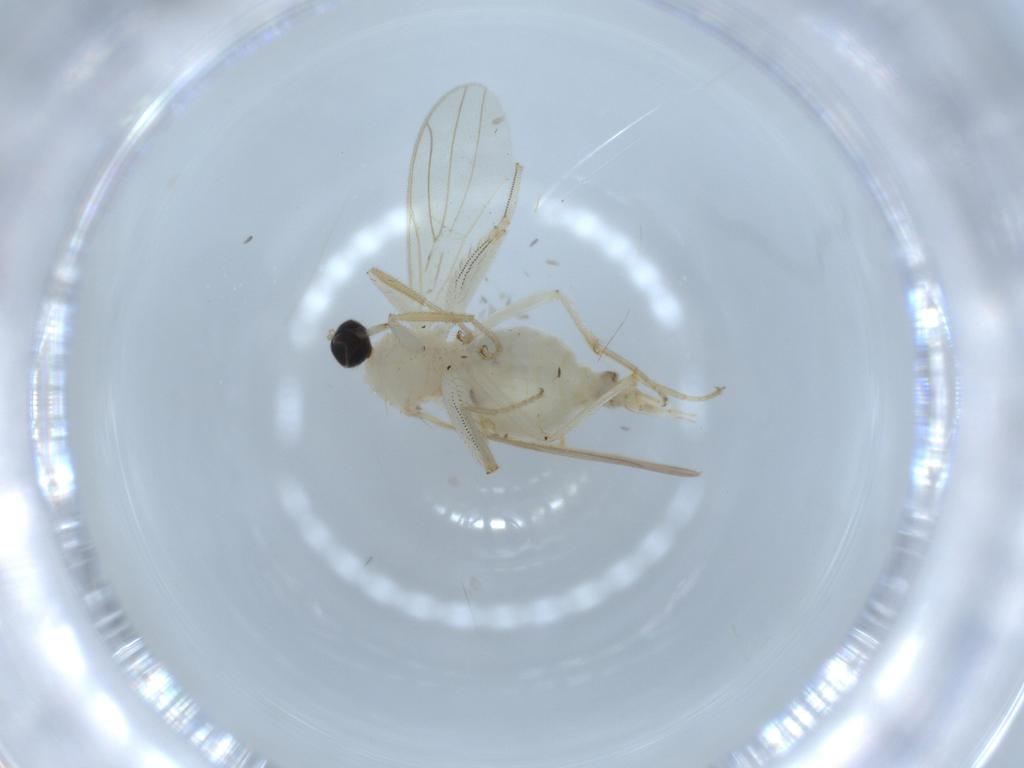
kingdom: Animalia
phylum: Arthropoda
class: Insecta
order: Diptera
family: Hybotidae
